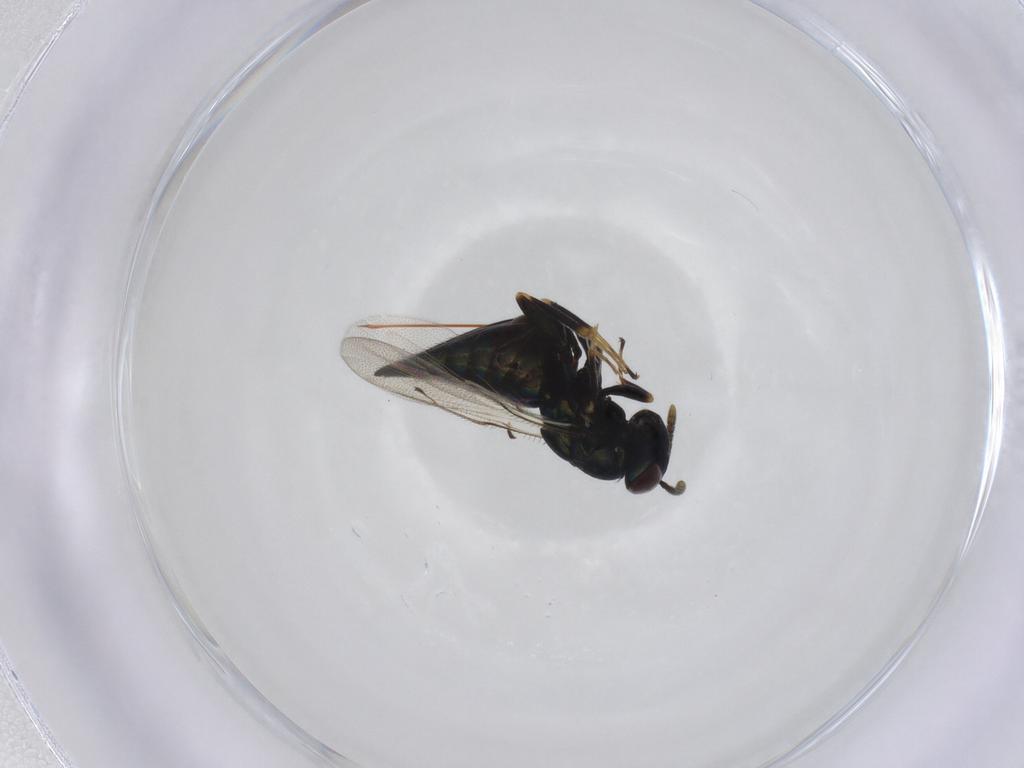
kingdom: Animalia
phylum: Arthropoda
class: Insecta
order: Hymenoptera
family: Pteromalidae
